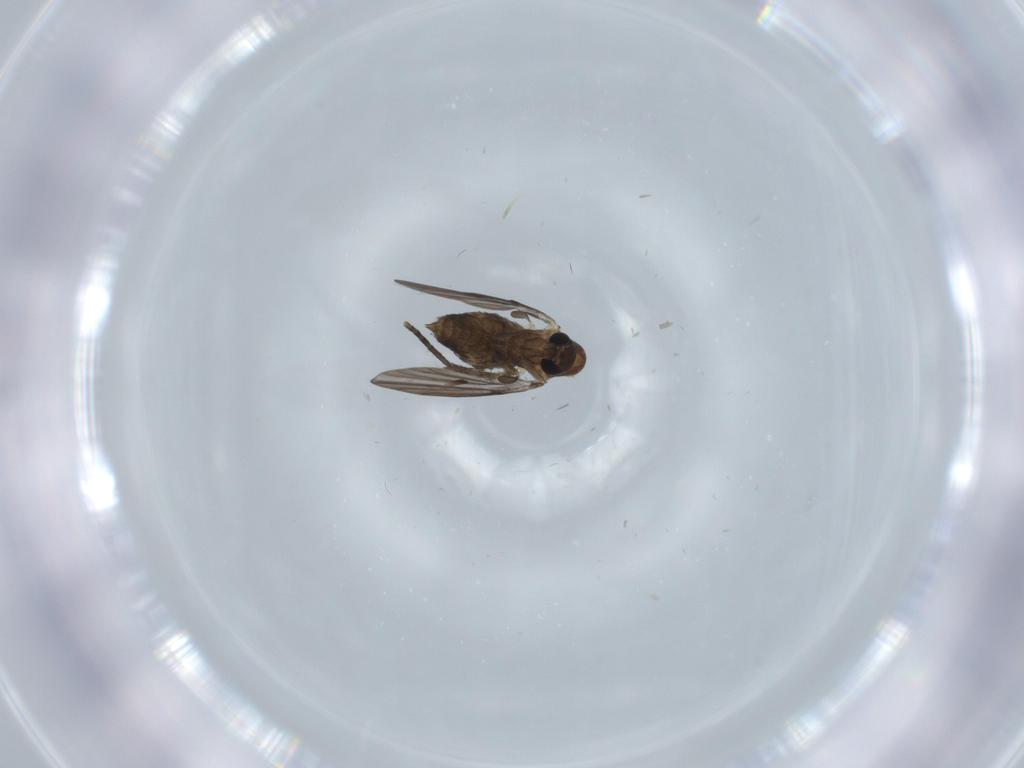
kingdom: Animalia
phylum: Arthropoda
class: Insecta
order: Diptera
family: Psychodidae
